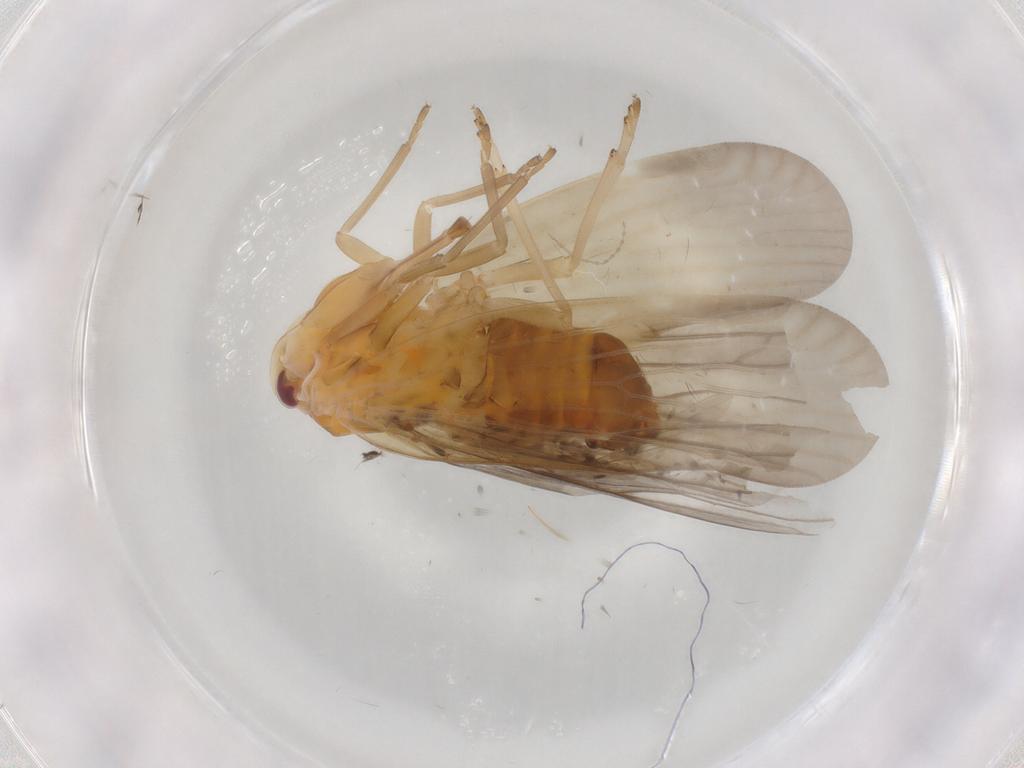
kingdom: Animalia
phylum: Arthropoda
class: Insecta
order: Hemiptera
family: Derbidae
